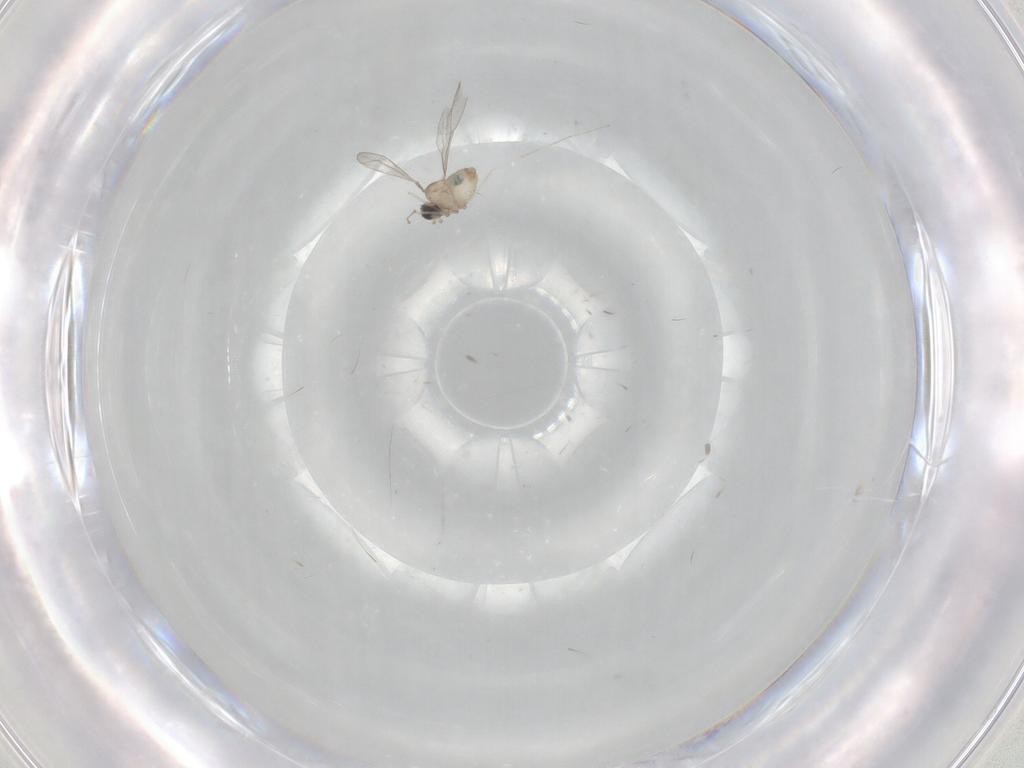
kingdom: Animalia
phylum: Arthropoda
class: Insecta
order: Diptera
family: Cecidomyiidae
